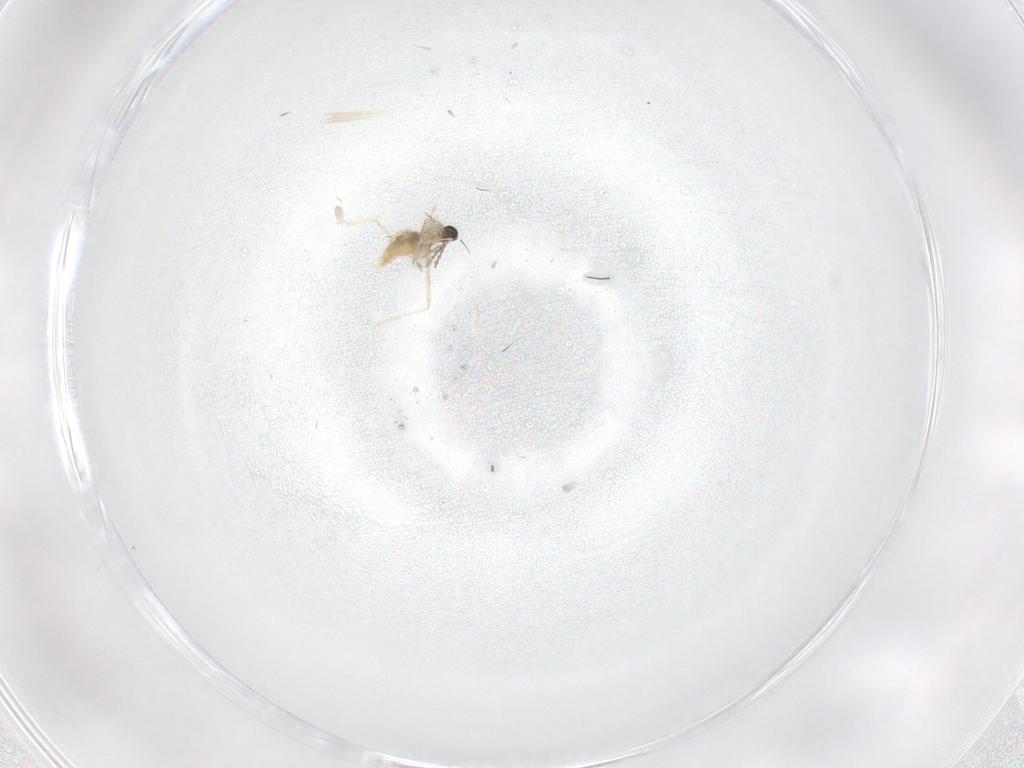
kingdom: Animalia
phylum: Arthropoda
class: Insecta
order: Diptera
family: Cecidomyiidae
